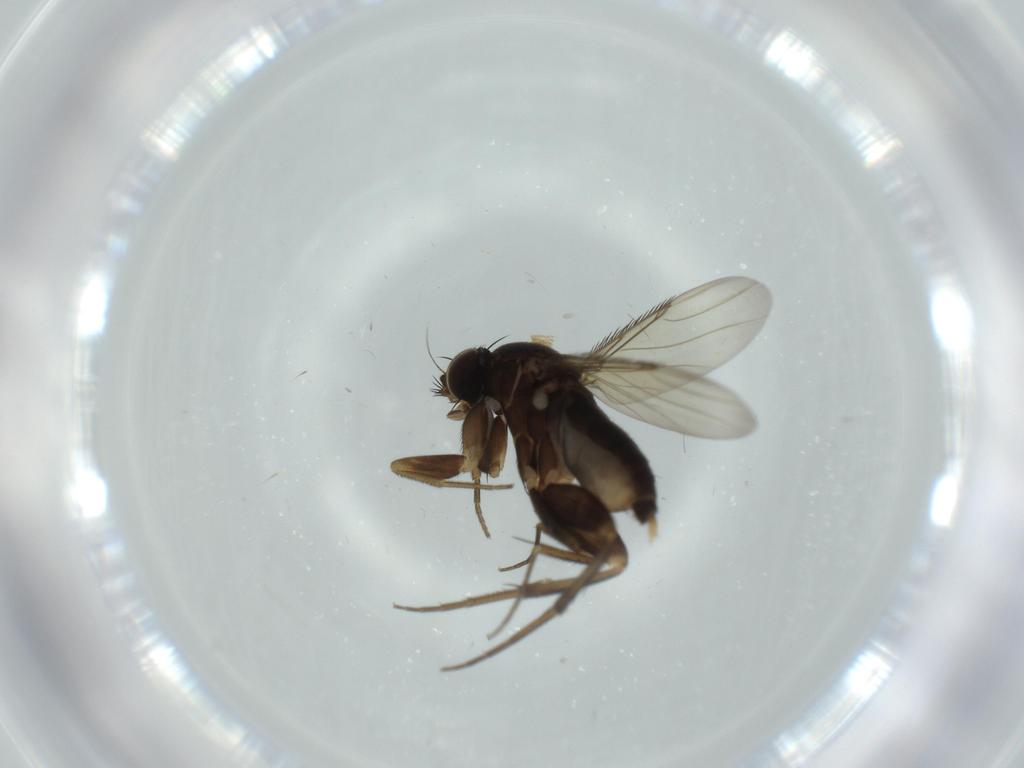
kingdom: Animalia
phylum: Arthropoda
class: Insecta
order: Diptera
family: Phoridae
